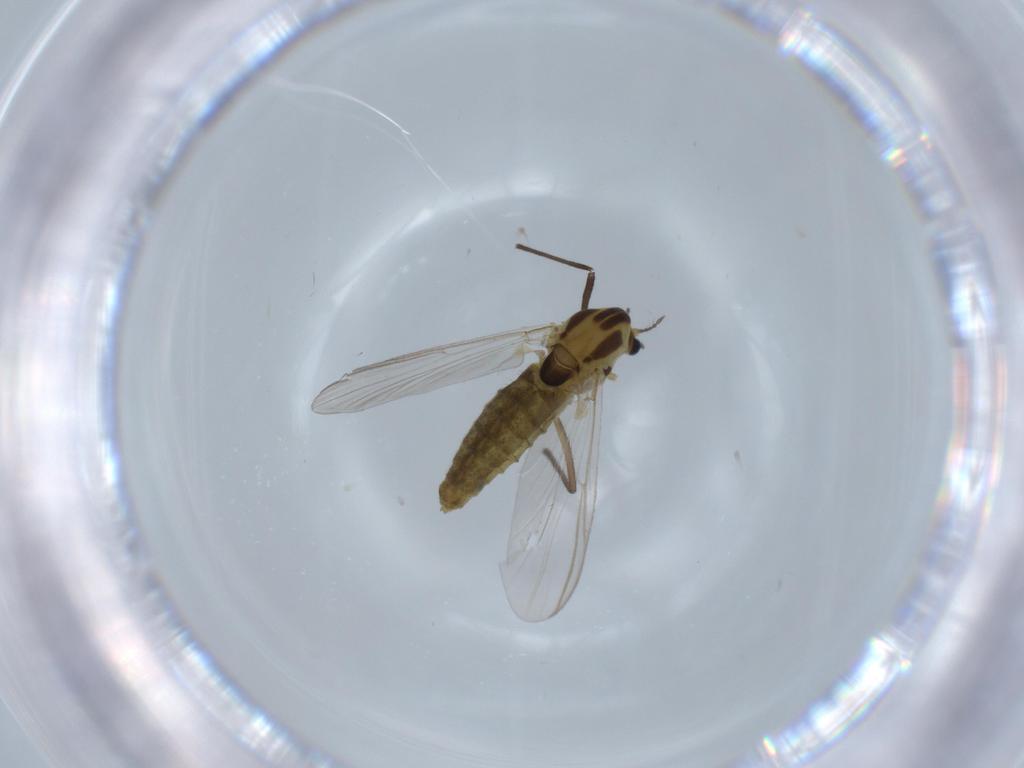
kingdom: Animalia
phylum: Arthropoda
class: Insecta
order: Diptera
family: Chironomidae
